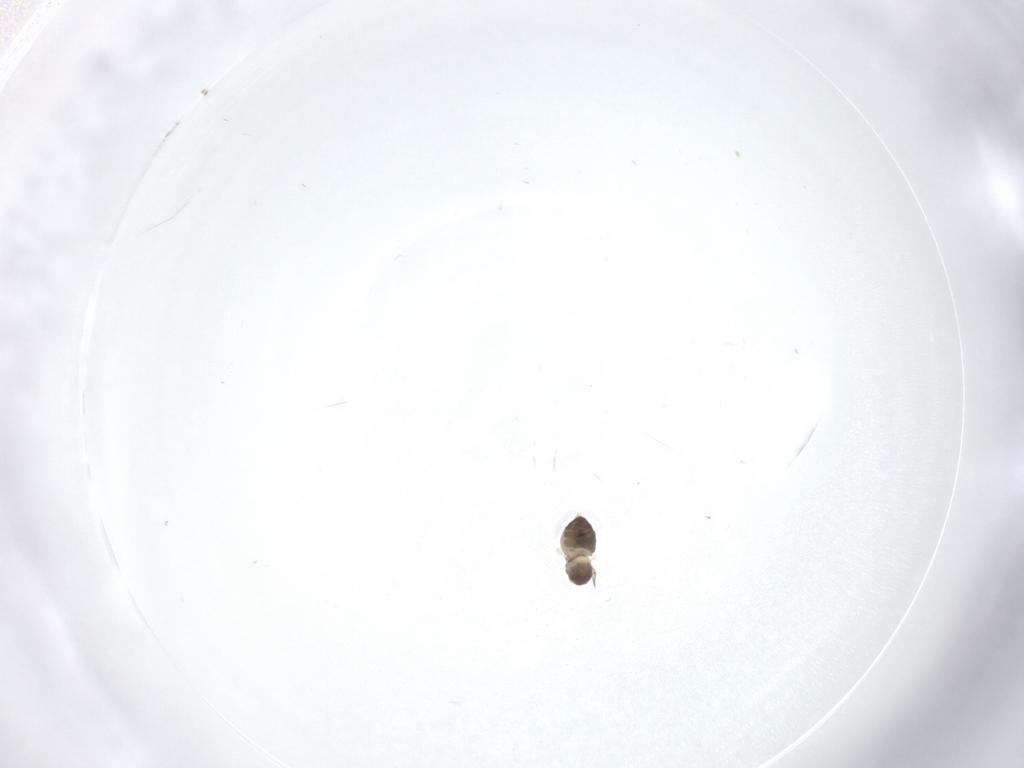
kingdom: Animalia
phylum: Arthropoda
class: Insecta
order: Diptera
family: Cecidomyiidae
